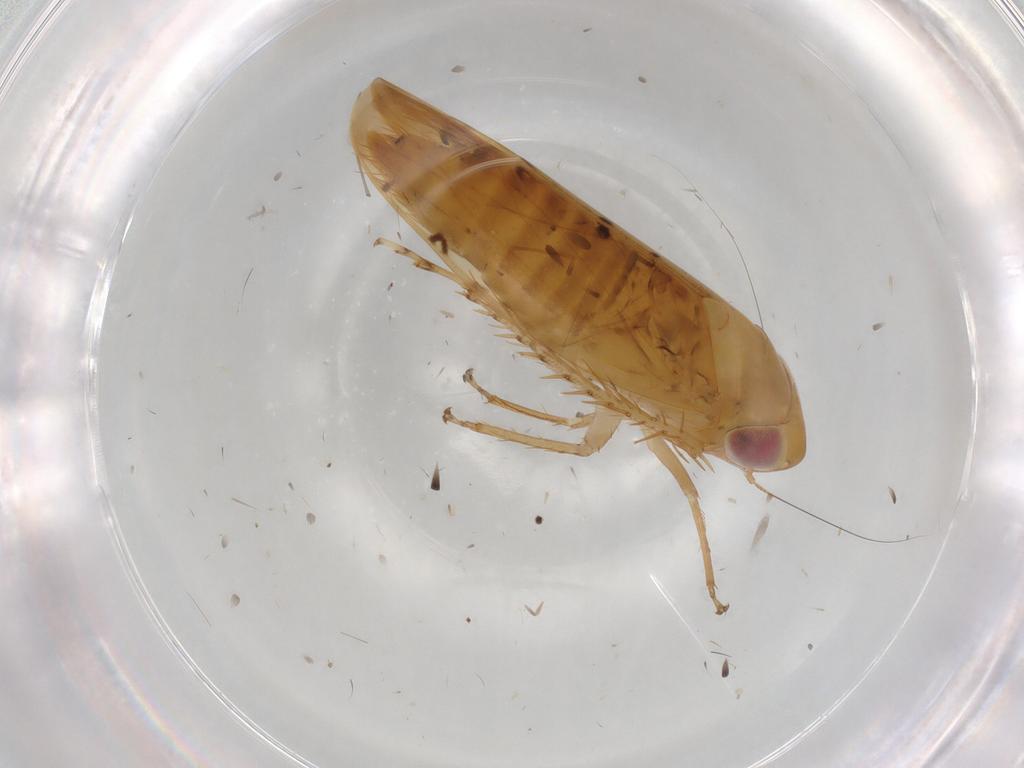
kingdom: Animalia
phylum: Arthropoda
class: Insecta
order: Hemiptera
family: Cicadellidae
